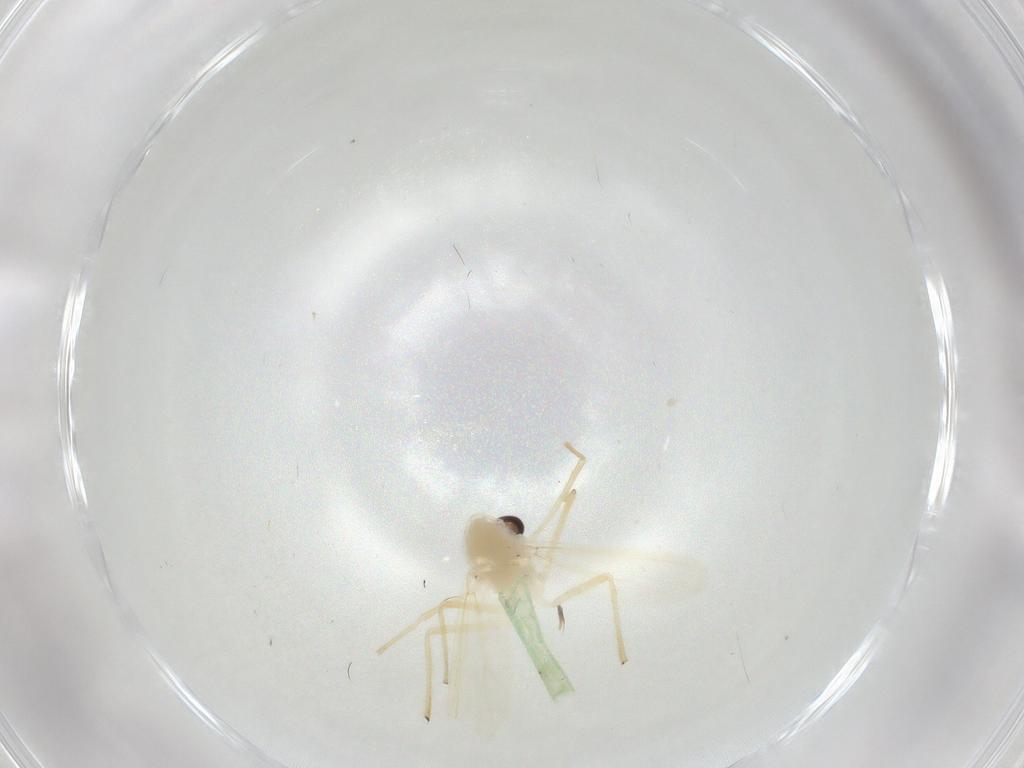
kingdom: Animalia
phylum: Arthropoda
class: Insecta
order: Diptera
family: Chironomidae
